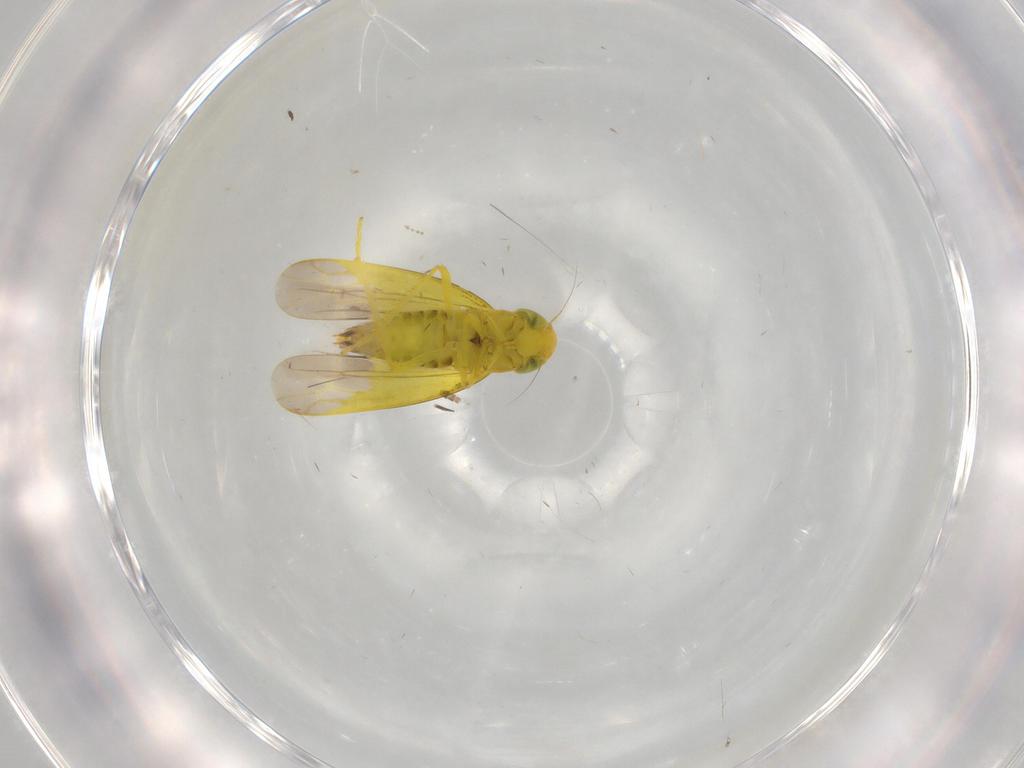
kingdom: Animalia
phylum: Arthropoda
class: Insecta
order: Hemiptera
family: Cicadellidae
